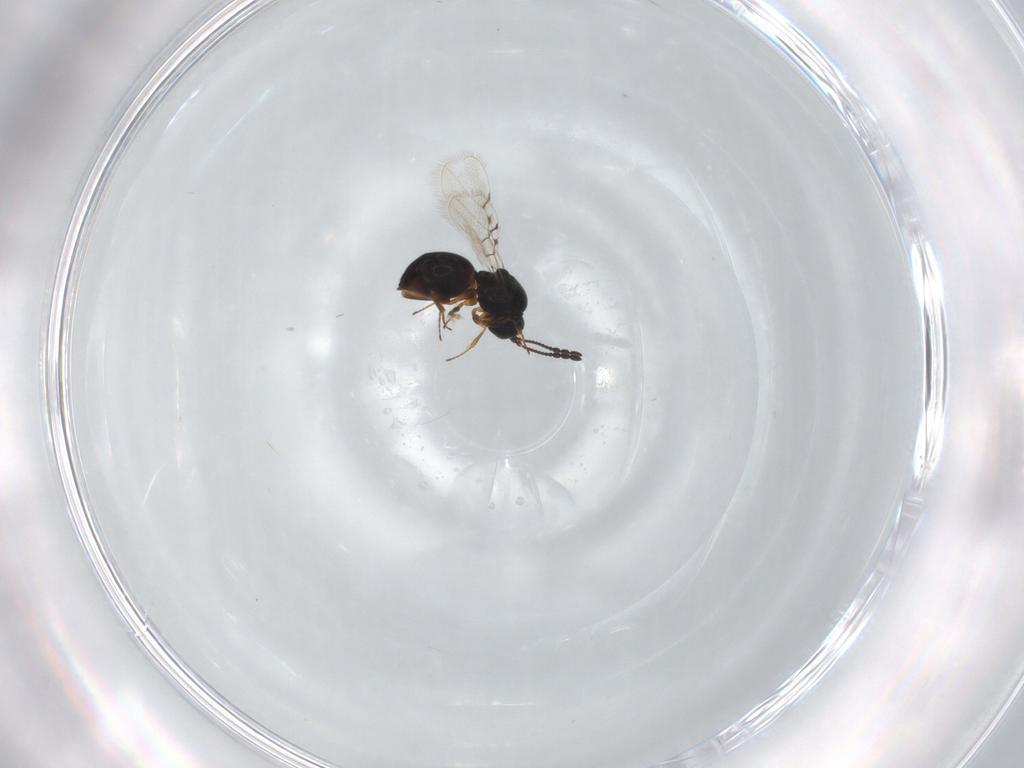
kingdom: Animalia
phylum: Arthropoda
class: Insecta
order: Hymenoptera
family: Figitidae
